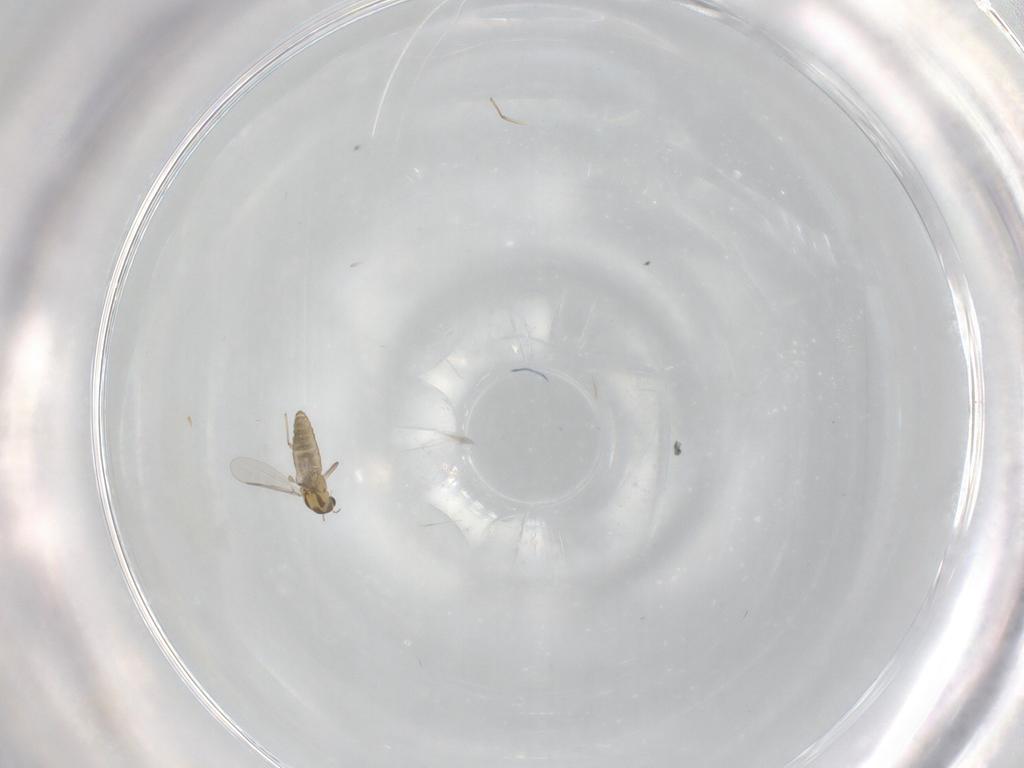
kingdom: Animalia
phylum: Arthropoda
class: Insecta
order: Diptera
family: Chironomidae
